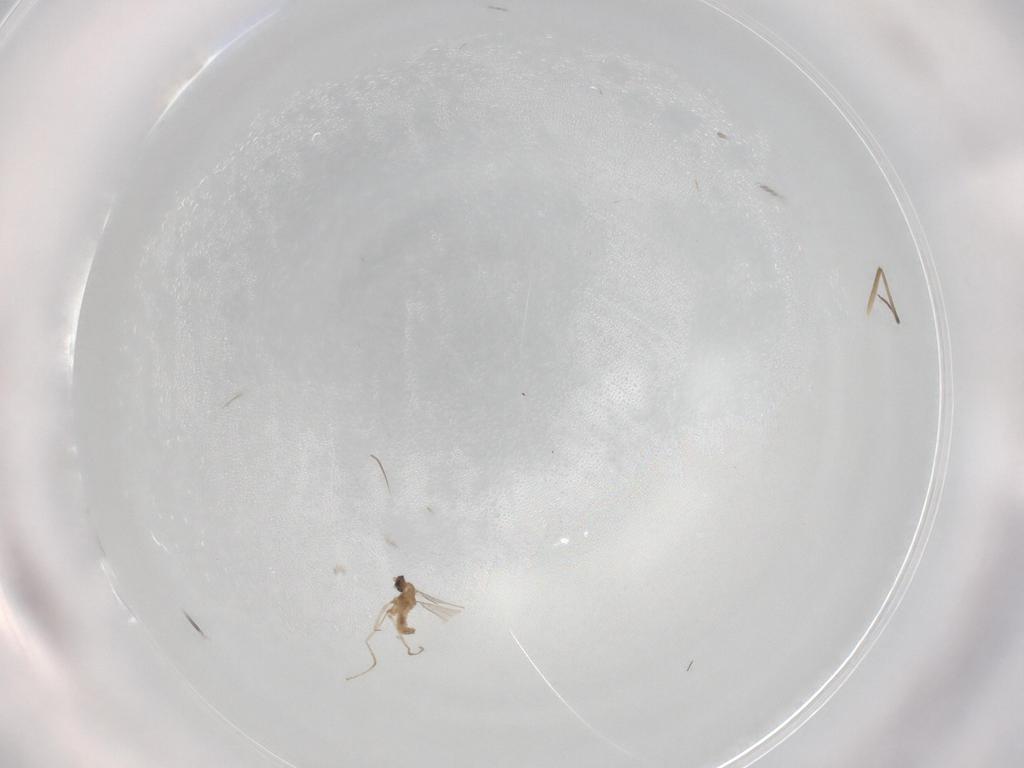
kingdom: Animalia
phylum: Arthropoda
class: Insecta
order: Diptera
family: Chironomidae
